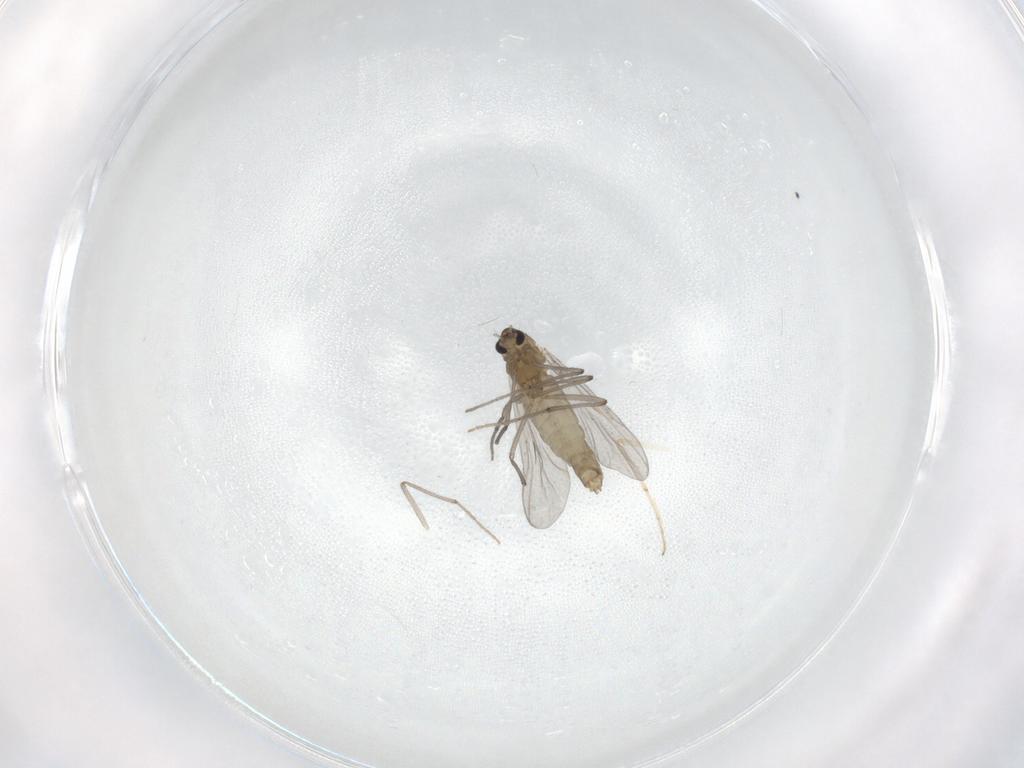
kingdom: Animalia
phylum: Arthropoda
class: Insecta
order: Diptera
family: Chironomidae
